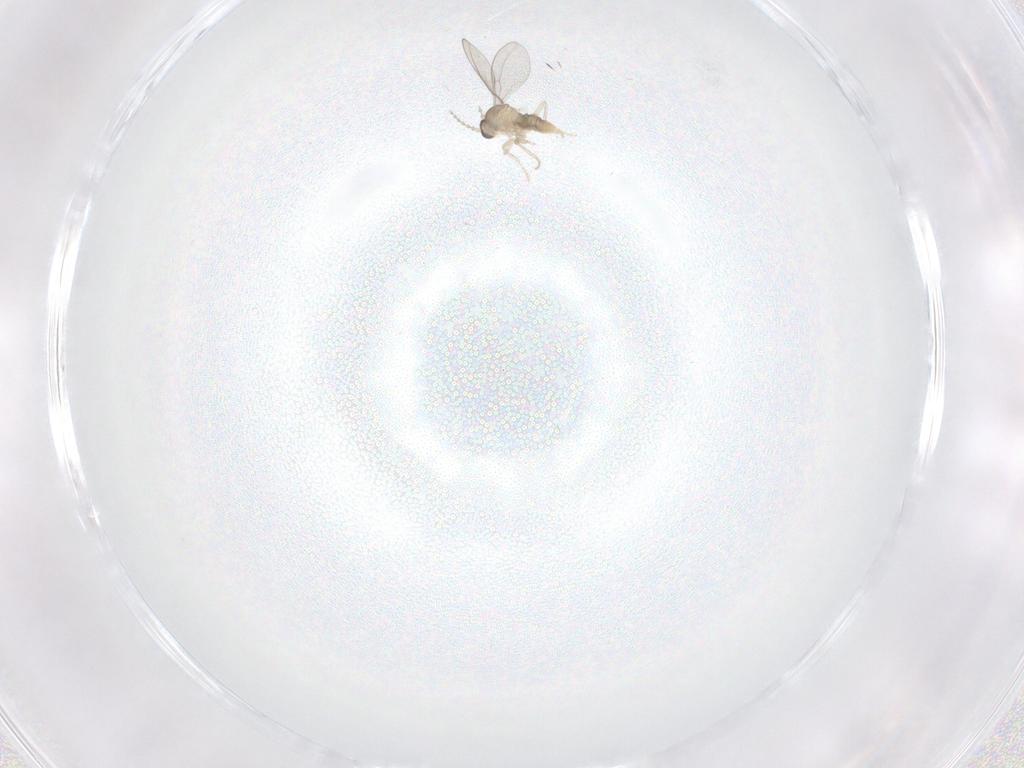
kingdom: Animalia
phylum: Arthropoda
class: Insecta
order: Diptera
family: Phoridae
